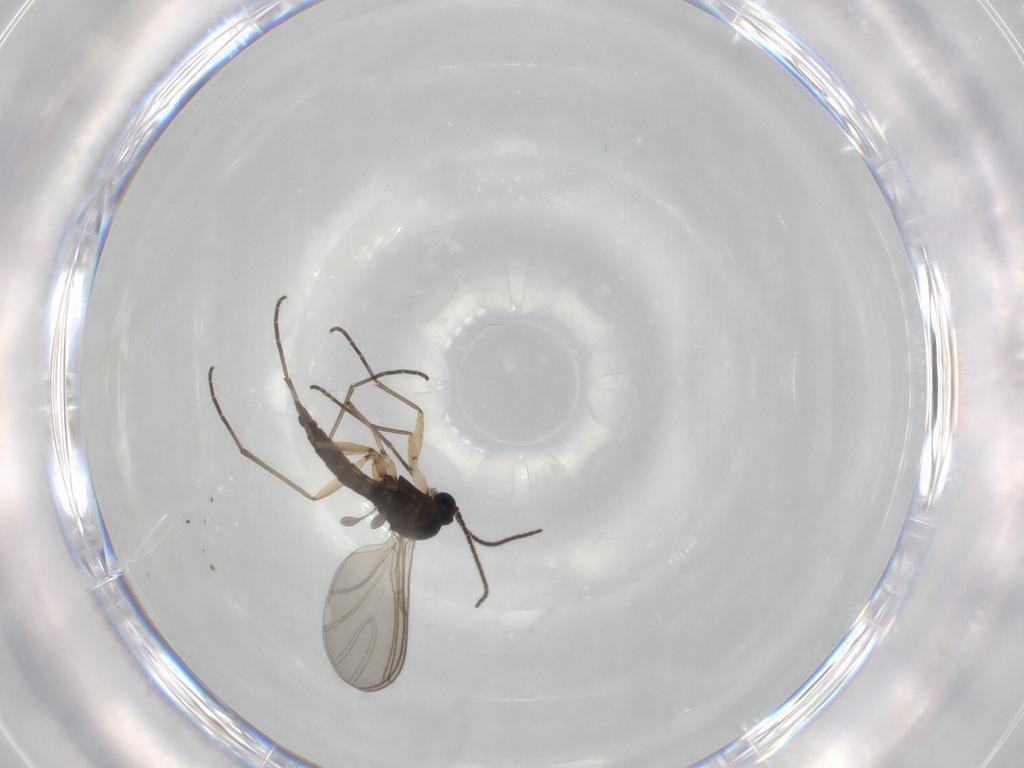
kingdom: Animalia
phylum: Arthropoda
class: Insecta
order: Diptera
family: Sciaridae
